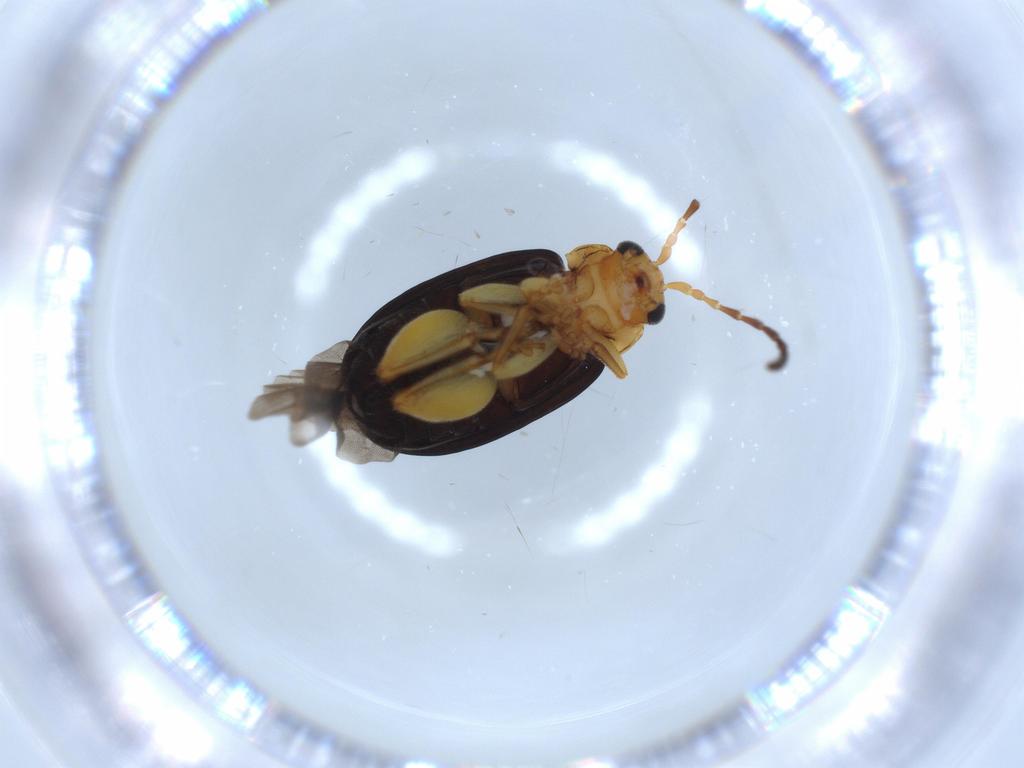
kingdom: Animalia
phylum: Arthropoda
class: Insecta
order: Coleoptera
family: Chrysomelidae
